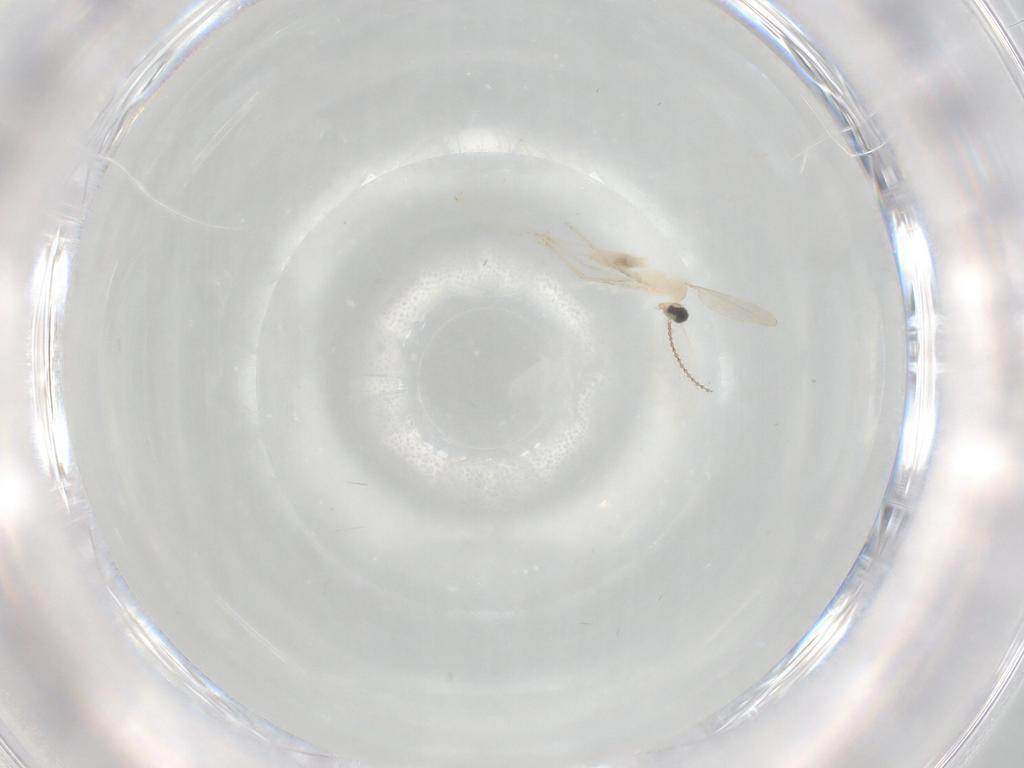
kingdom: Animalia
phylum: Arthropoda
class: Insecta
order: Diptera
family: Cecidomyiidae
